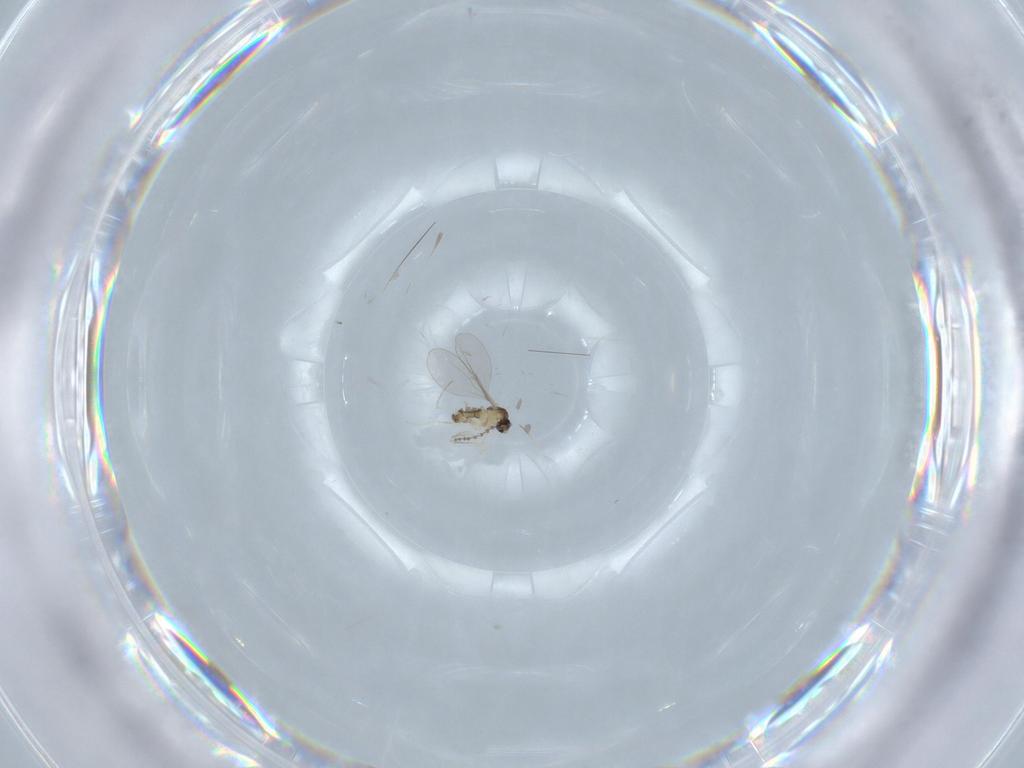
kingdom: Animalia
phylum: Arthropoda
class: Insecta
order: Diptera
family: Cecidomyiidae
